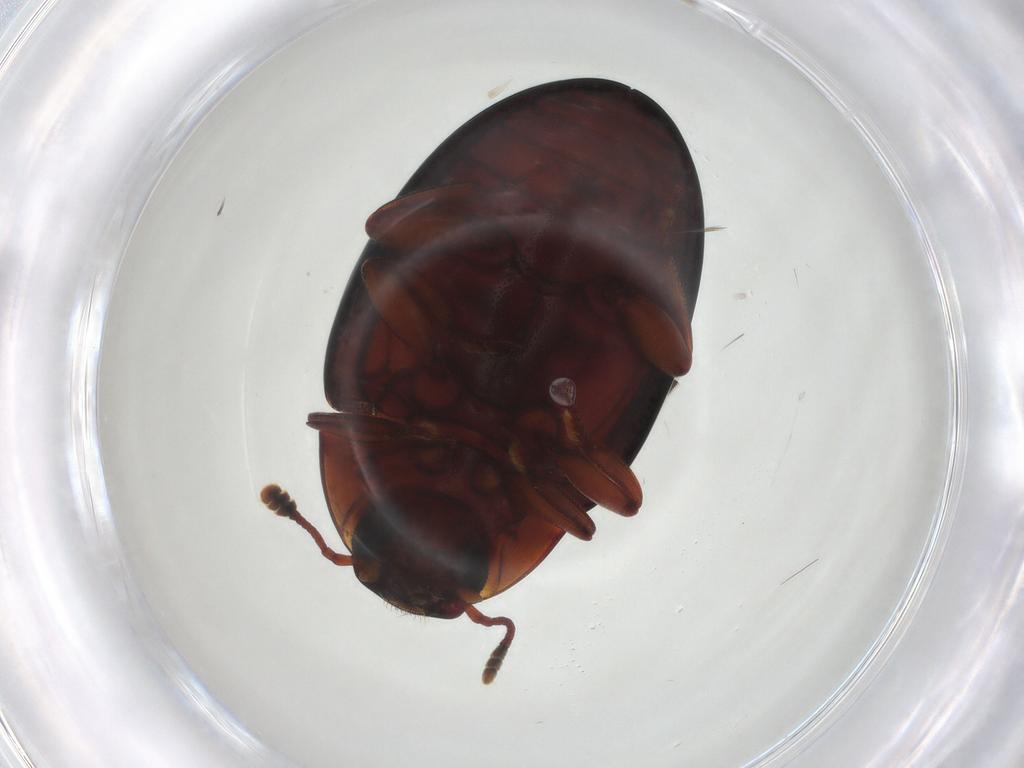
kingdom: Animalia
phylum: Arthropoda
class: Insecta
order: Coleoptera
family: Zopheridae
